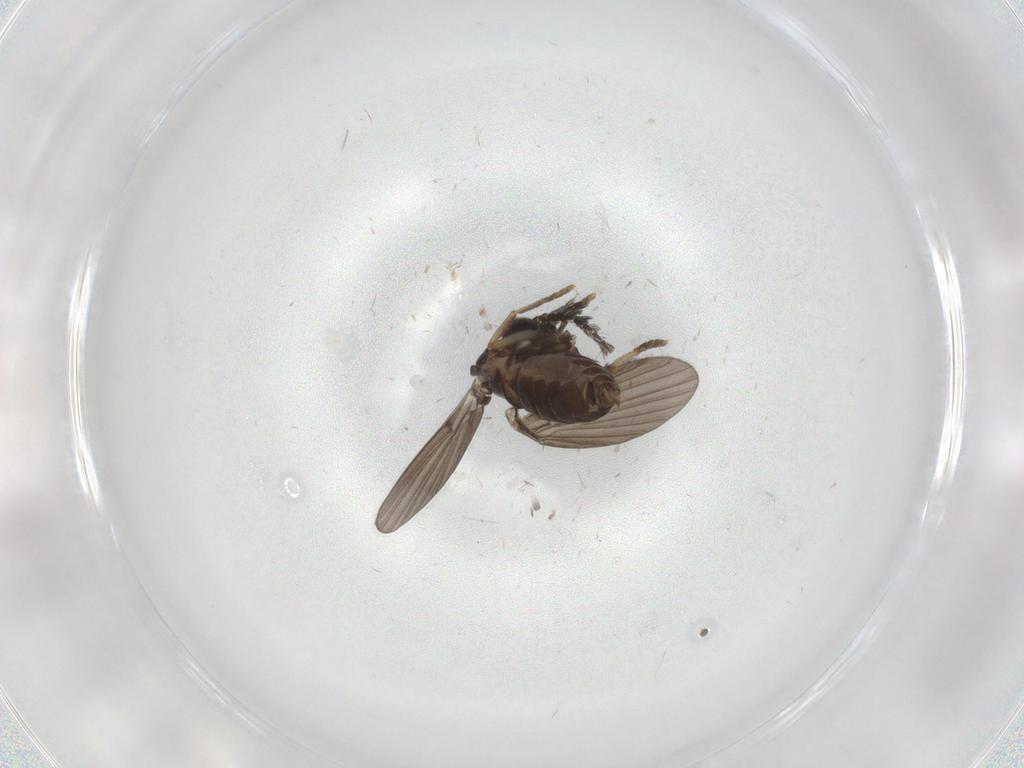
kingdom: Animalia
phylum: Arthropoda
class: Insecta
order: Diptera
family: Psychodidae
